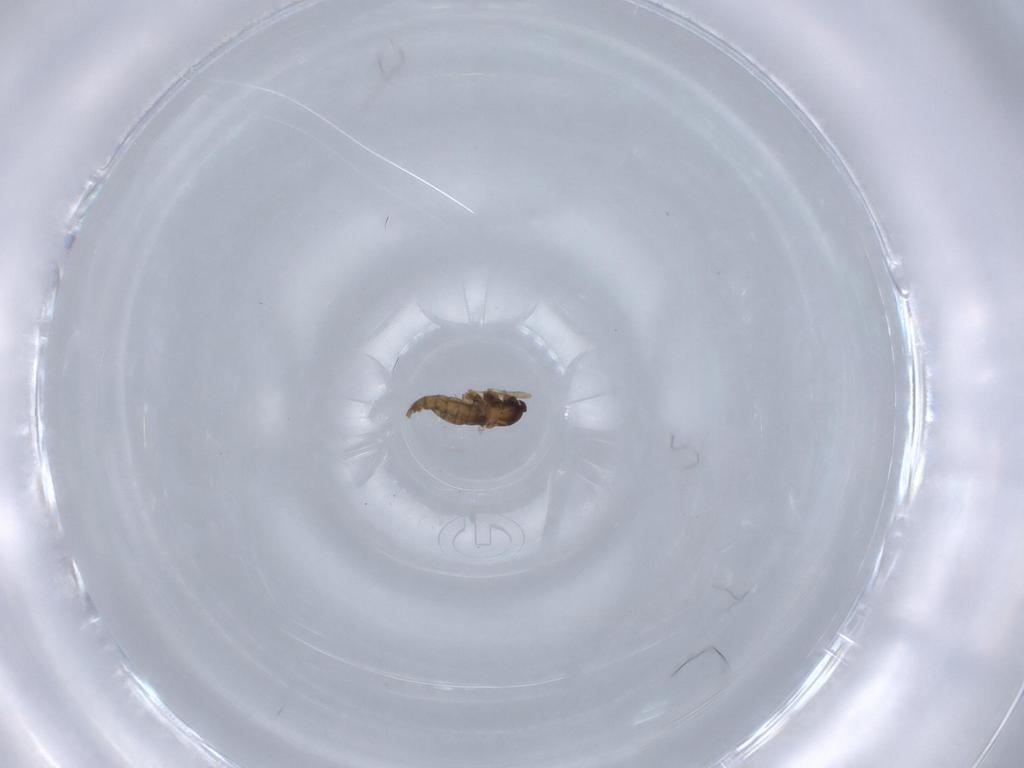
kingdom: Animalia
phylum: Arthropoda
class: Insecta
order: Diptera
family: Cecidomyiidae
